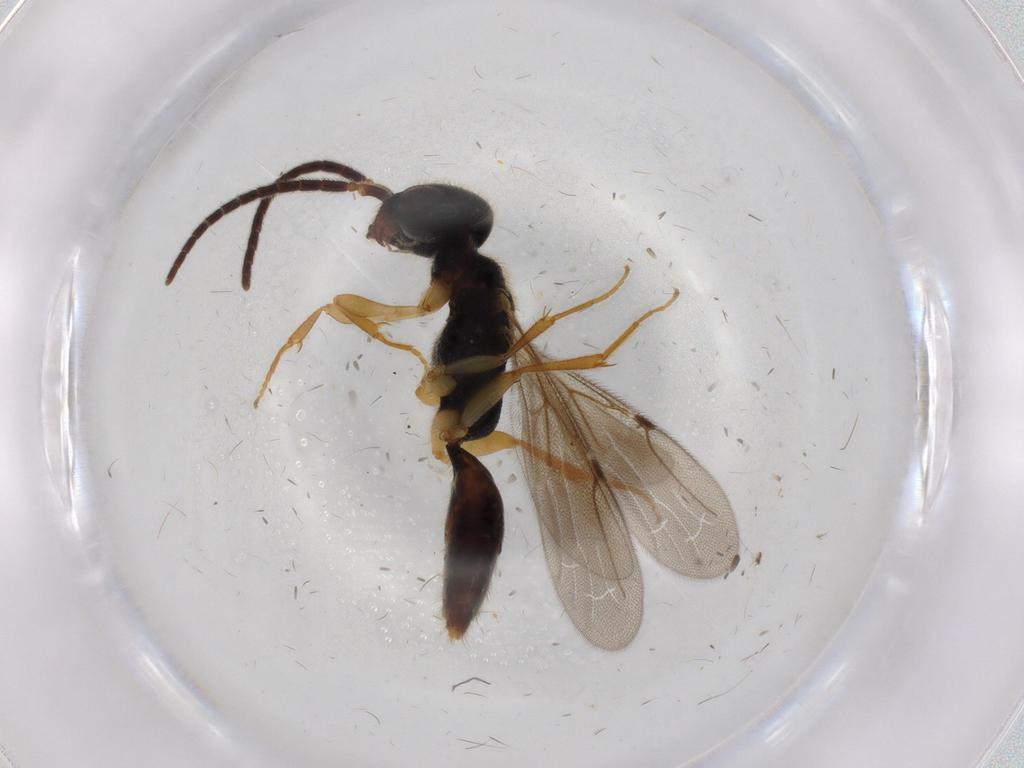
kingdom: Animalia
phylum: Arthropoda
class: Insecta
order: Hymenoptera
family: Diapriidae
